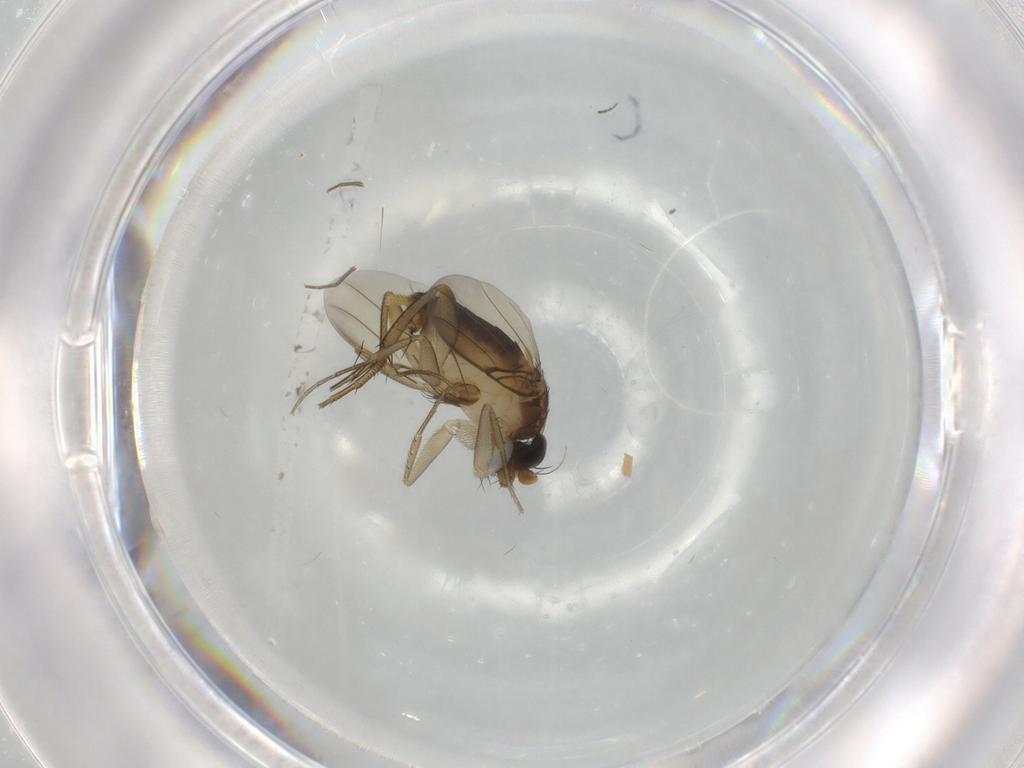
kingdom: Animalia
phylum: Arthropoda
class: Insecta
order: Diptera
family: Phoridae
